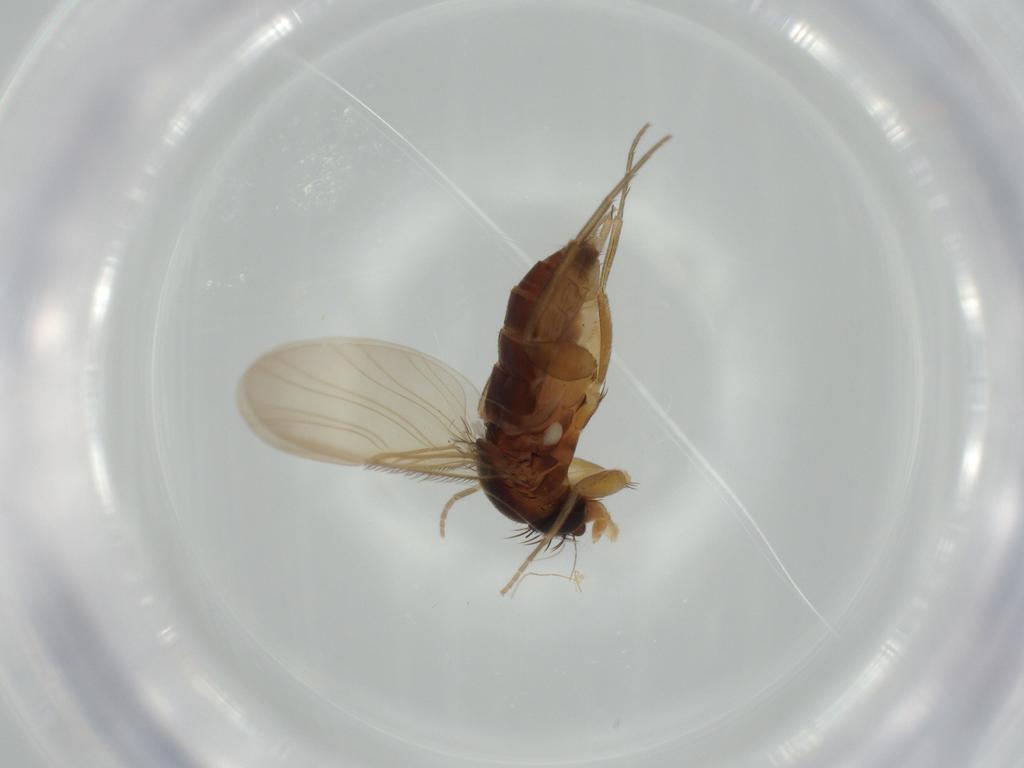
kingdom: Animalia
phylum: Arthropoda
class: Insecta
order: Diptera
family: Phoridae
